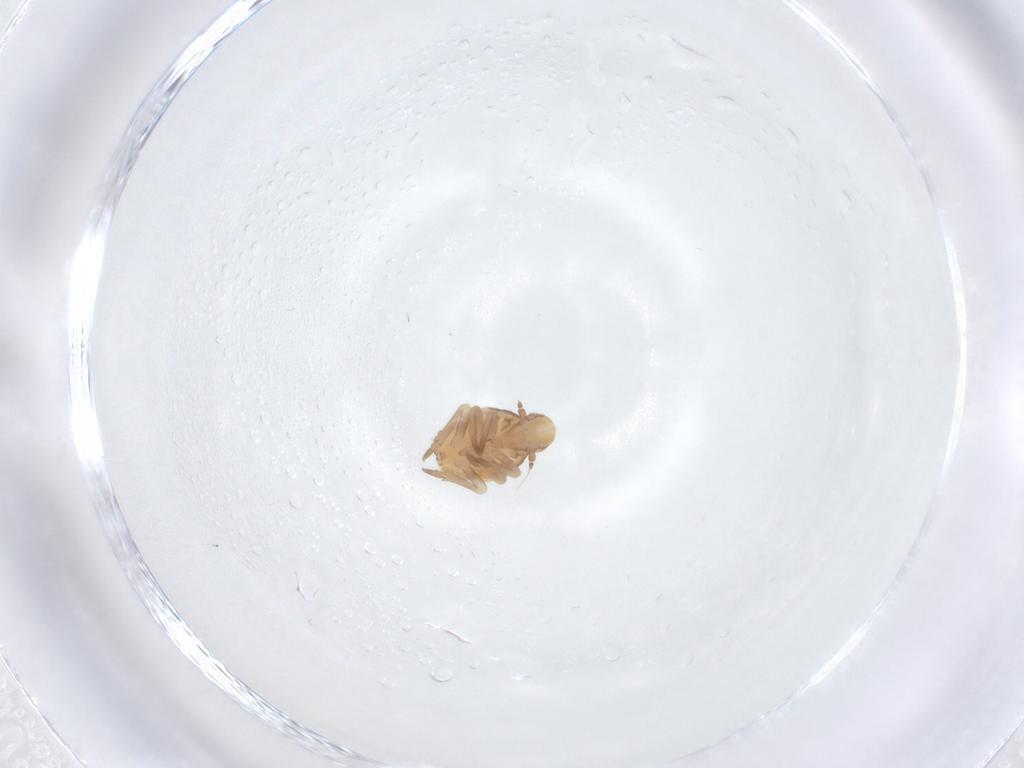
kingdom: Animalia
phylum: Arthropoda
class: Insecta
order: Hemiptera
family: Flatidae
